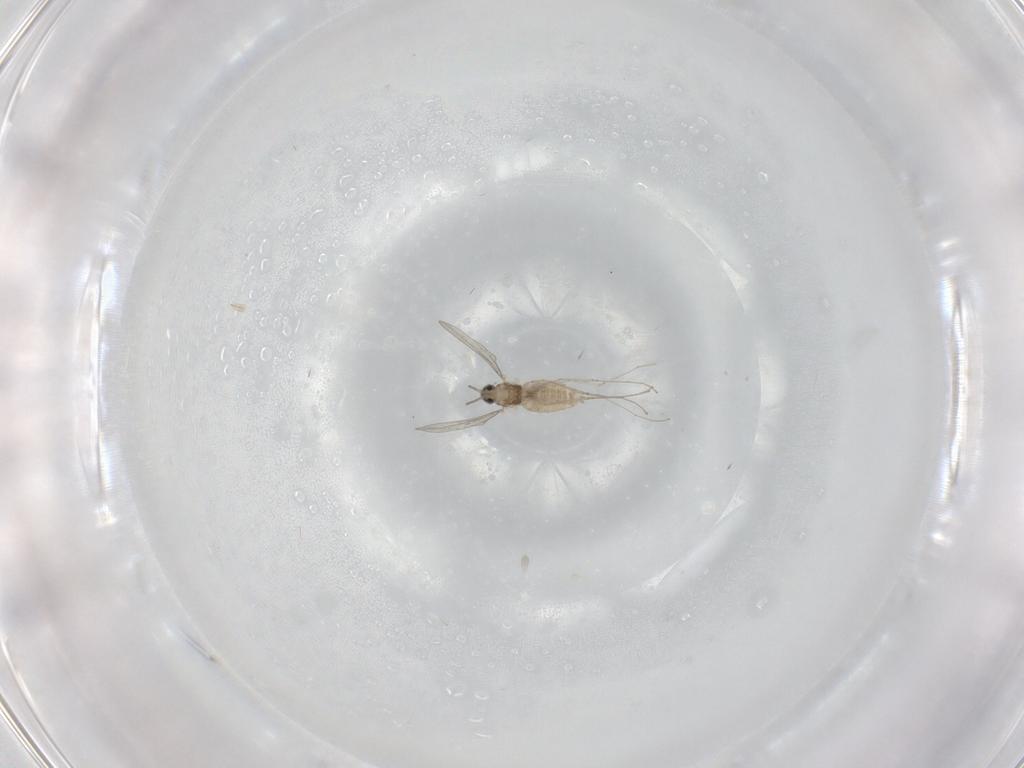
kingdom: Animalia
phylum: Arthropoda
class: Insecta
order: Diptera
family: Cecidomyiidae
